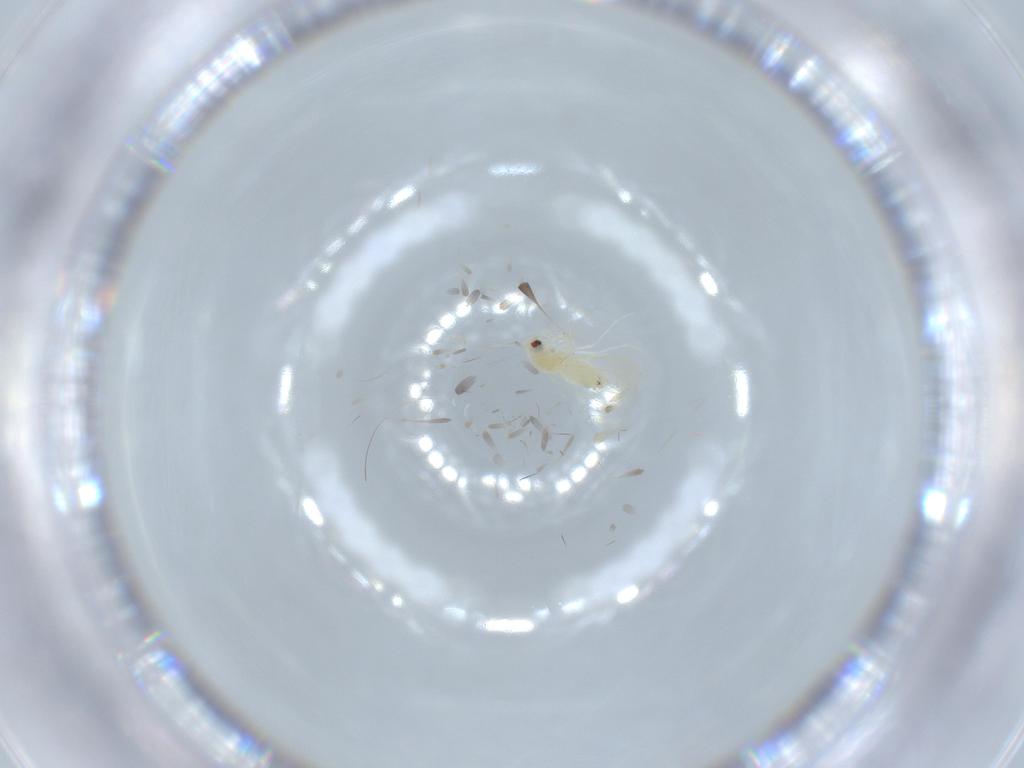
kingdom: Animalia
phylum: Arthropoda
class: Insecta
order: Hemiptera
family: Aleyrodidae
